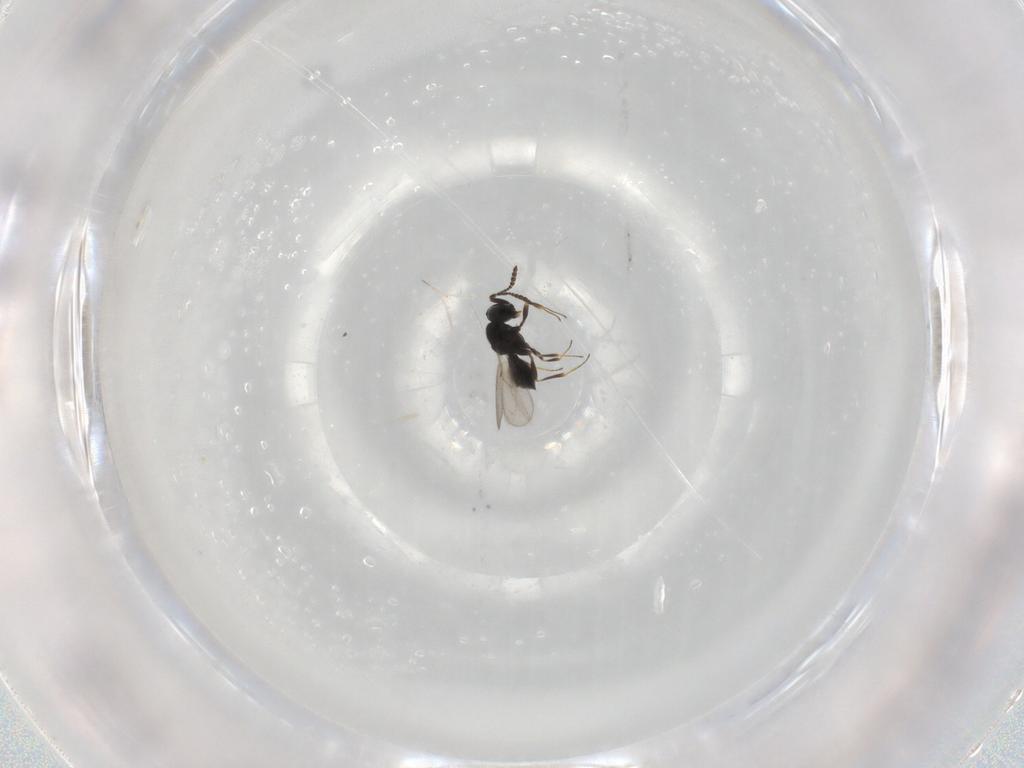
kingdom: Animalia
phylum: Arthropoda
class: Insecta
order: Hymenoptera
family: Scelionidae
